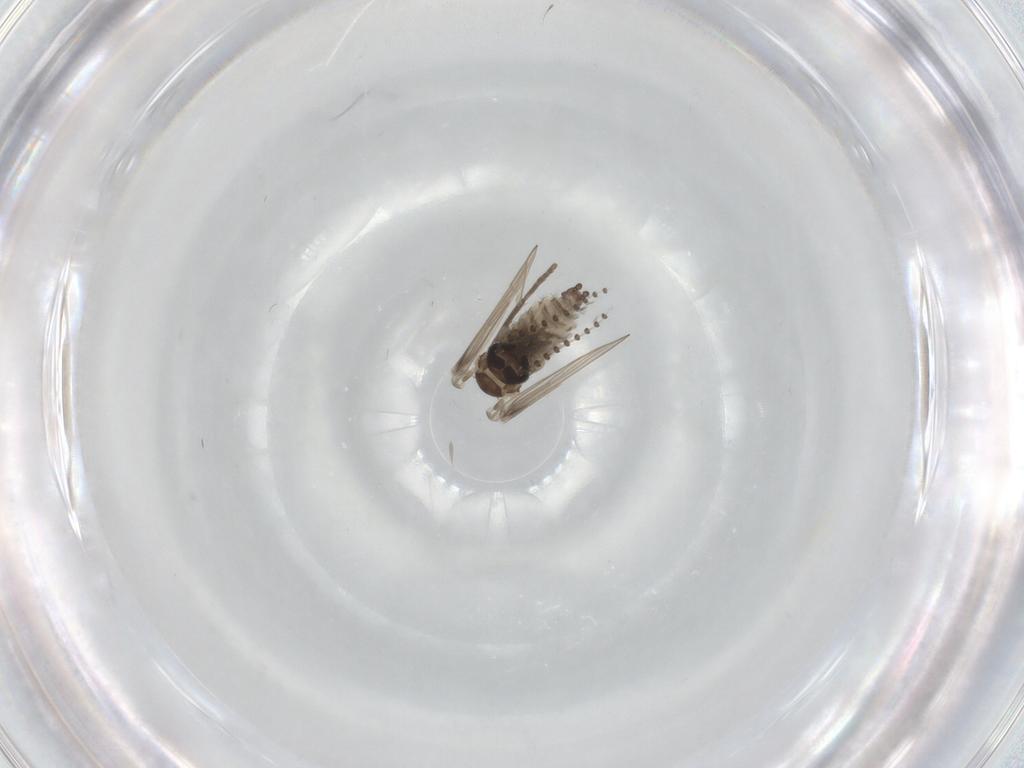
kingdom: Animalia
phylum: Arthropoda
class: Insecta
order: Diptera
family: Psychodidae
